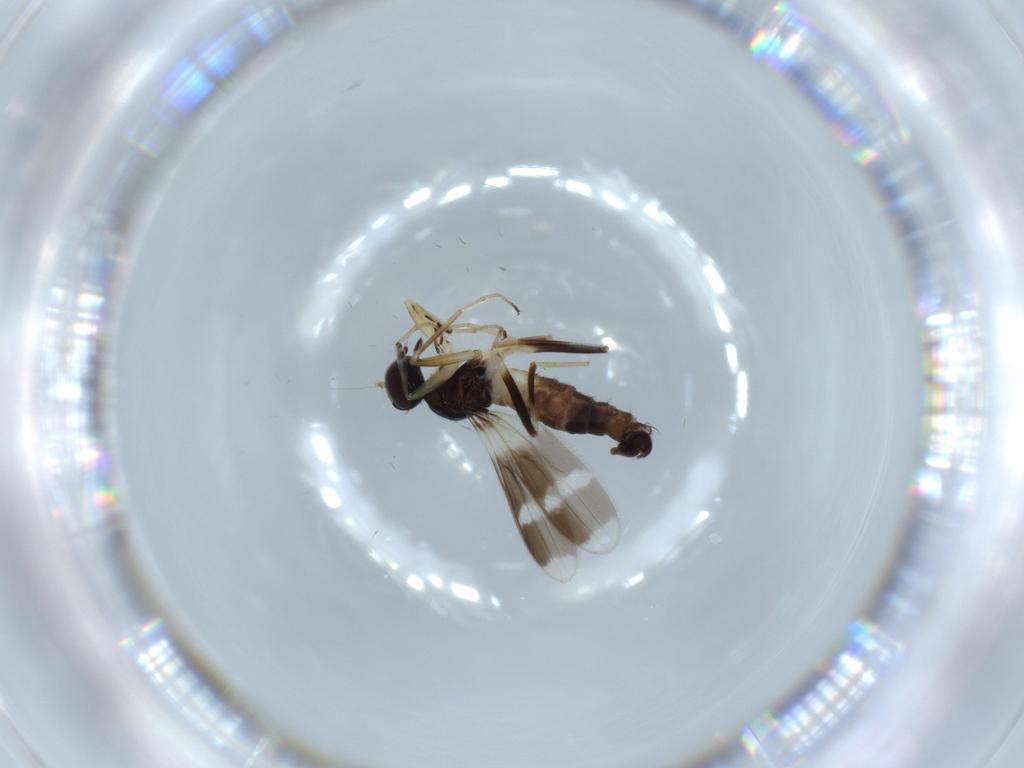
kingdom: Animalia
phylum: Arthropoda
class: Insecta
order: Diptera
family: Hybotidae
